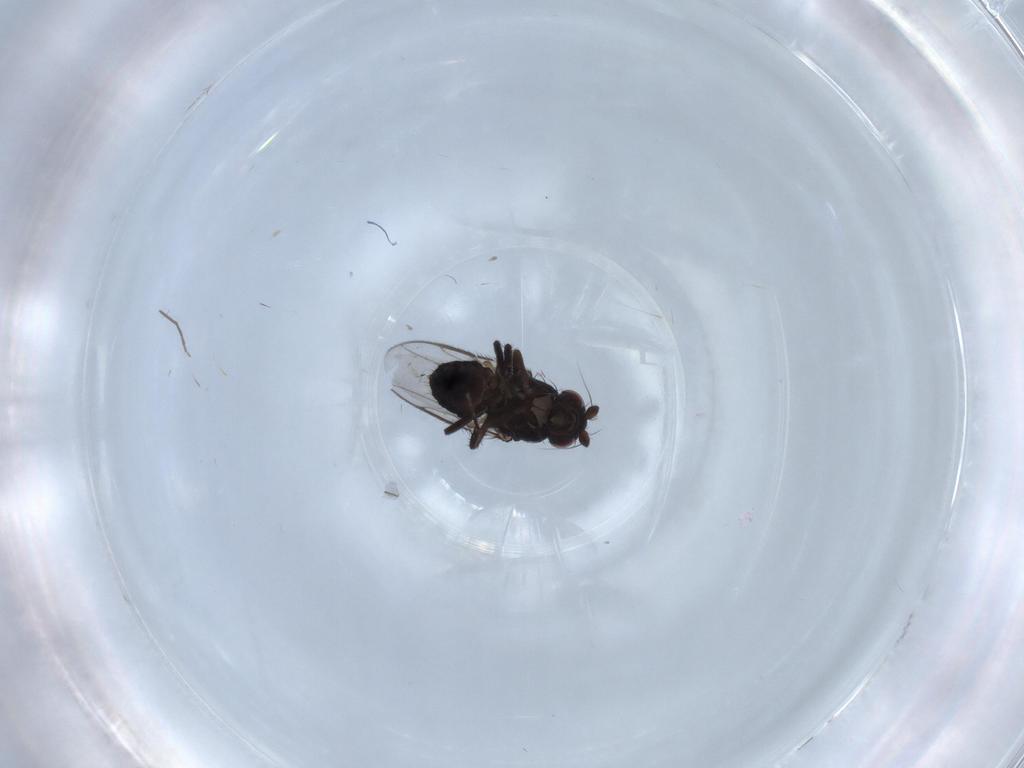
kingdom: Animalia
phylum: Arthropoda
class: Insecta
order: Diptera
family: Sphaeroceridae
